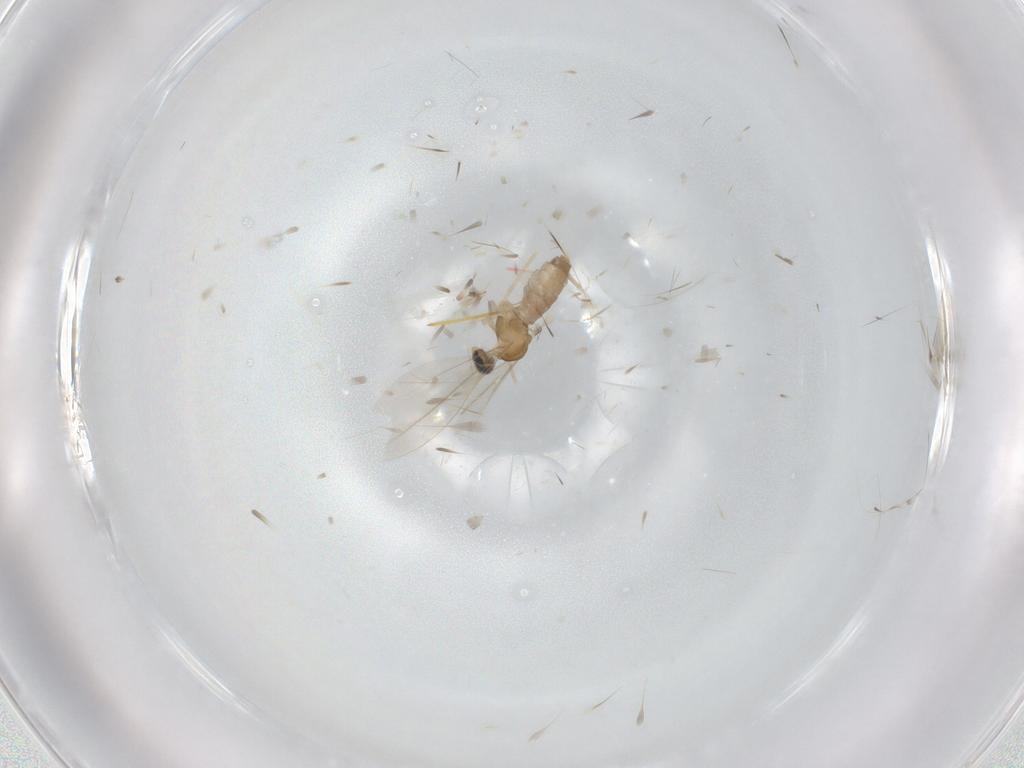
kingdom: Animalia
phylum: Arthropoda
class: Insecta
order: Diptera
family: Cecidomyiidae
